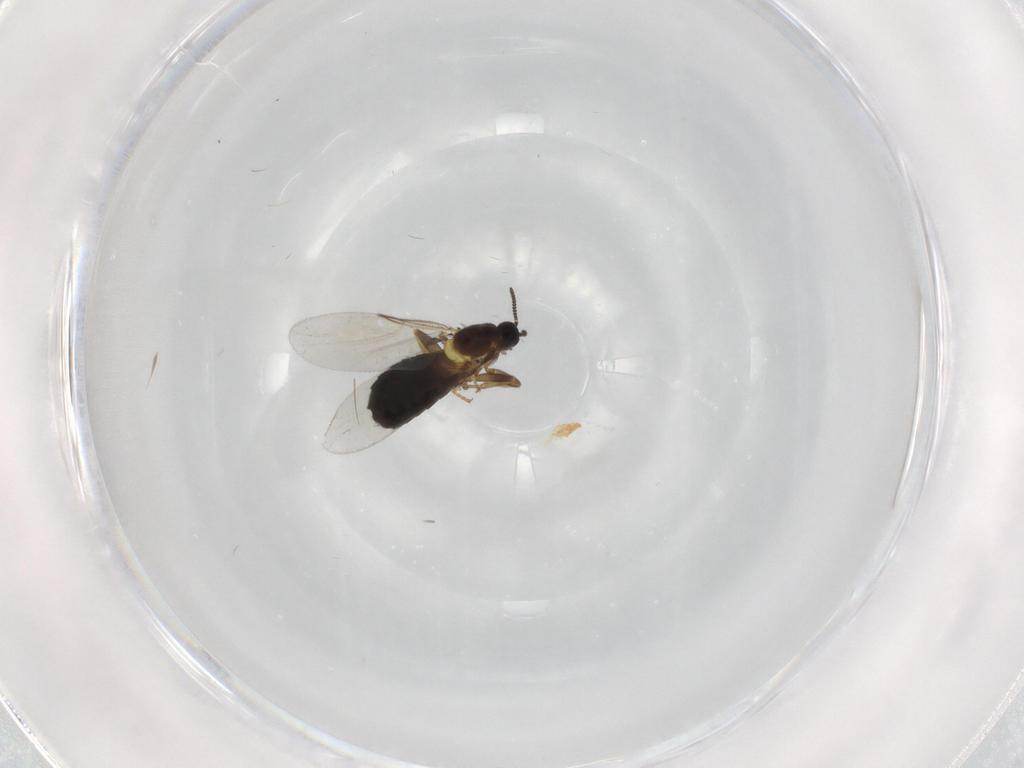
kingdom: Animalia
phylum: Arthropoda
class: Insecta
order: Diptera
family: Scatopsidae
